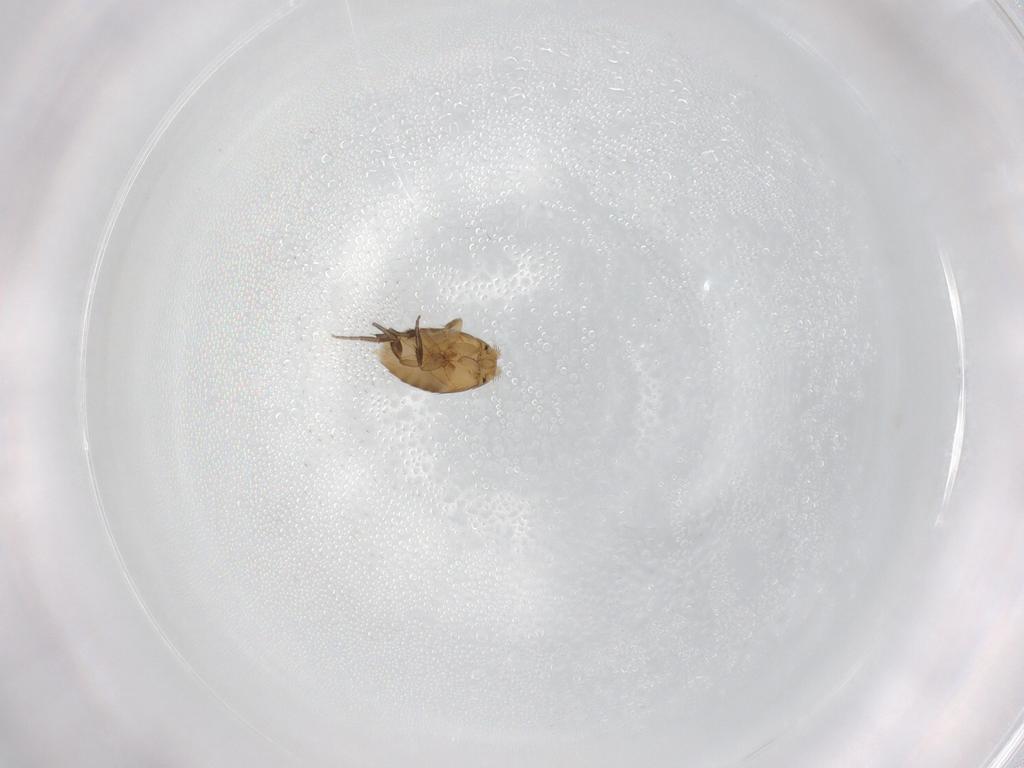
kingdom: Animalia
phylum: Arthropoda
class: Insecta
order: Diptera
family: Phoridae
